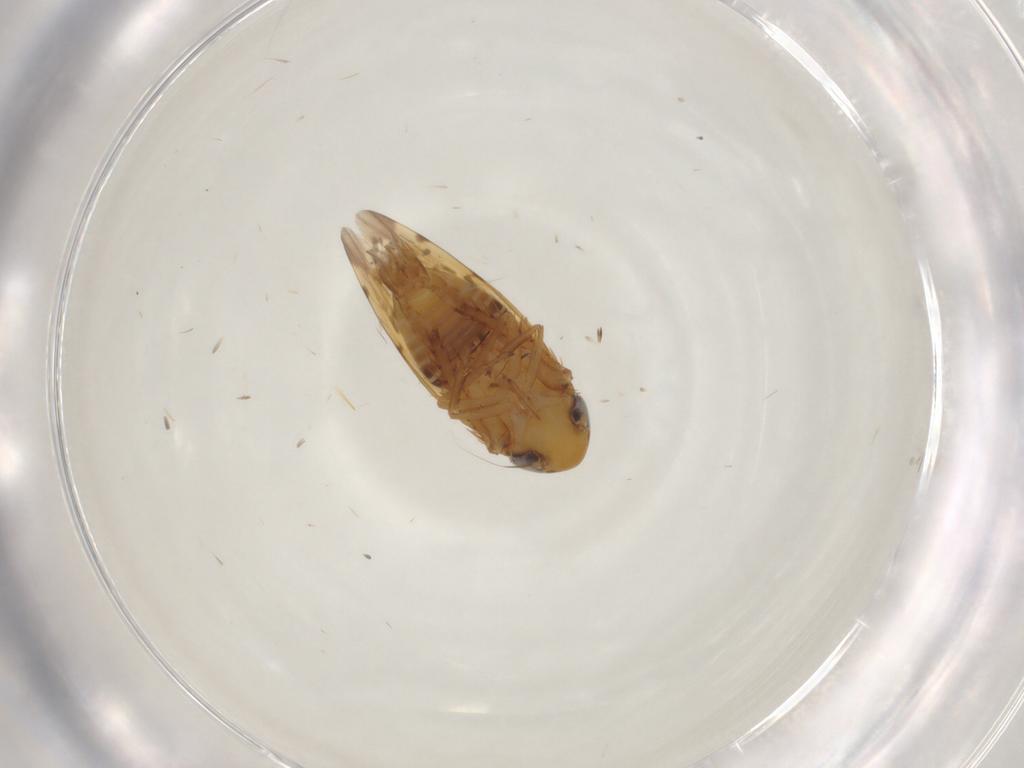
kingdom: Animalia
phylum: Arthropoda
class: Insecta
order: Hemiptera
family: Cicadellidae
